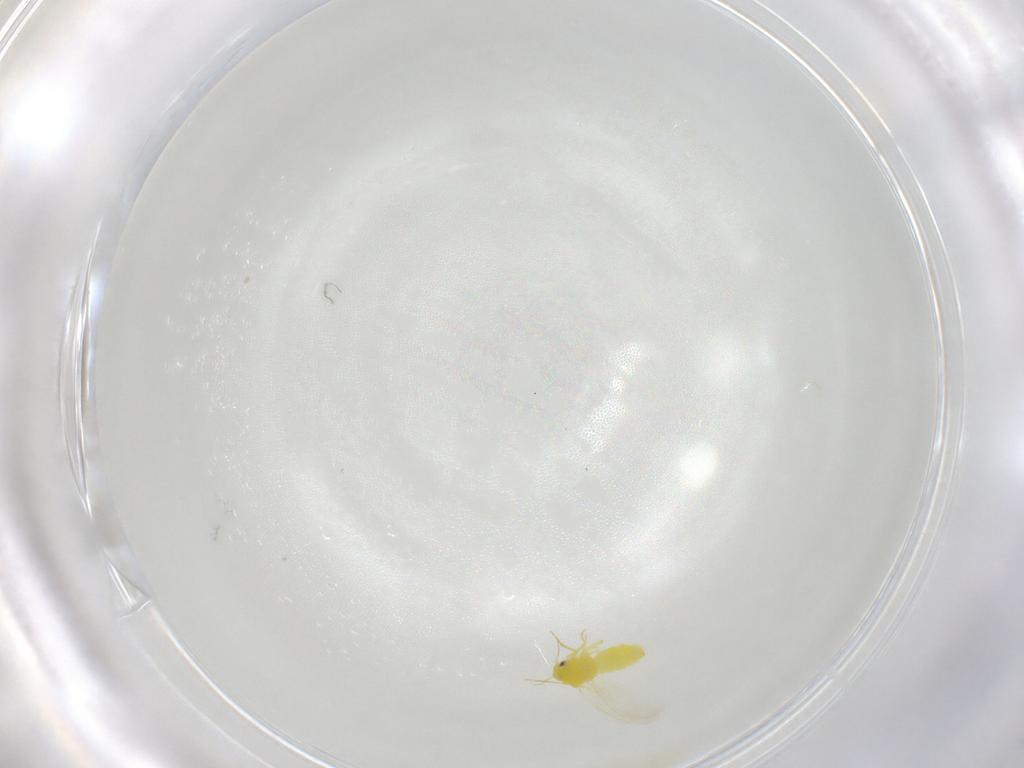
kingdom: Animalia
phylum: Arthropoda
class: Insecta
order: Hemiptera
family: Aleyrodidae
